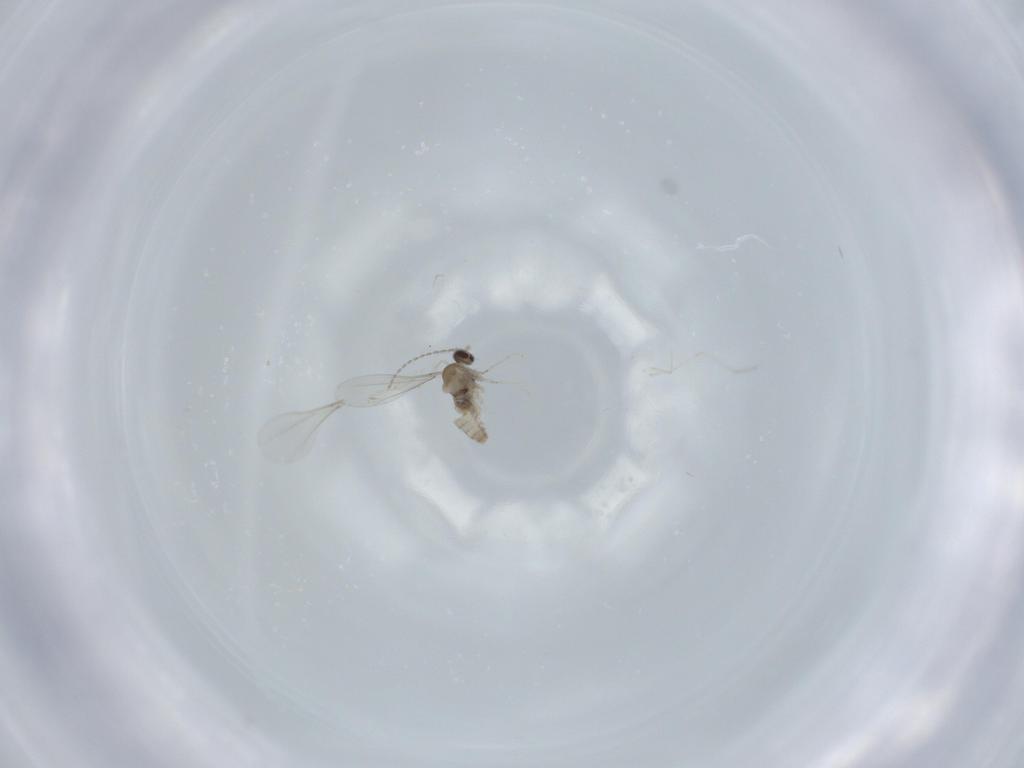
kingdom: Animalia
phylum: Arthropoda
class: Insecta
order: Diptera
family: Cecidomyiidae
